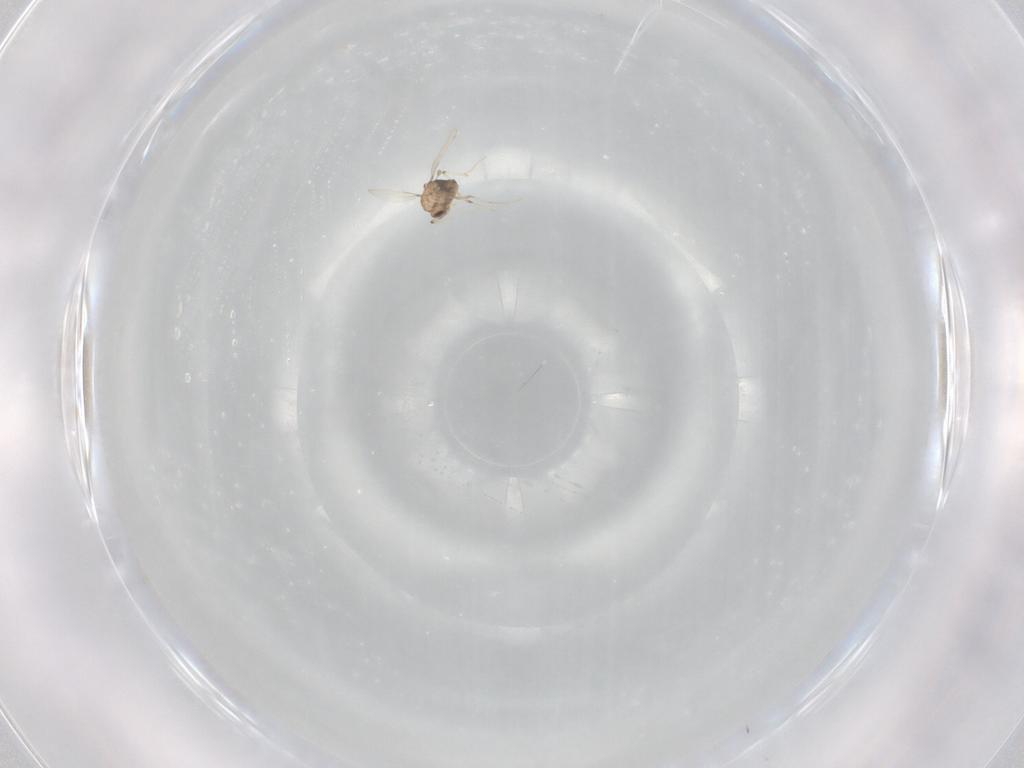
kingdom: Animalia
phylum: Arthropoda
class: Insecta
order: Diptera
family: Chironomidae
